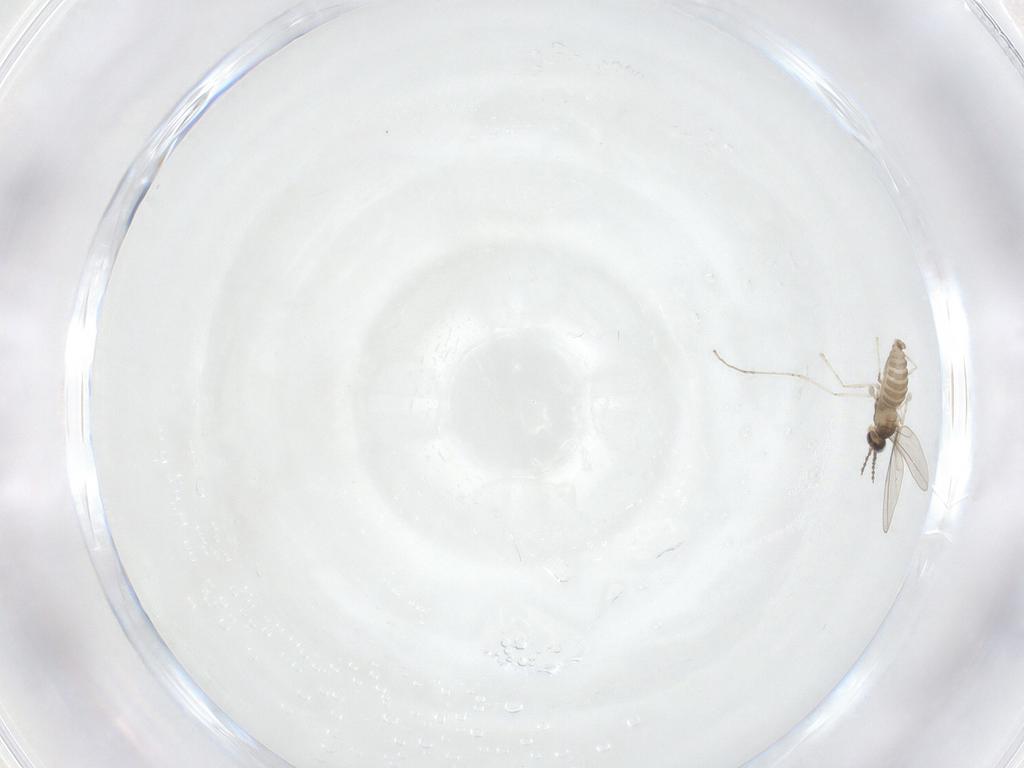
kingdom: Animalia
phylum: Arthropoda
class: Insecta
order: Diptera
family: Cecidomyiidae
